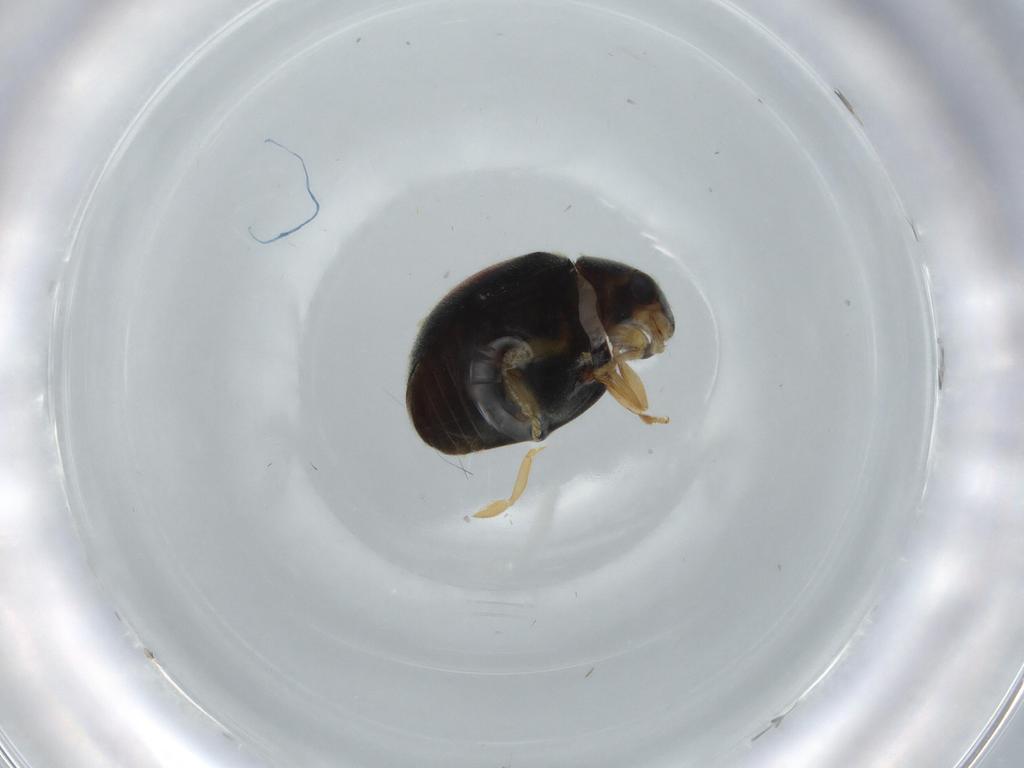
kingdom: Animalia
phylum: Arthropoda
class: Insecta
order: Coleoptera
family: Coccinellidae
